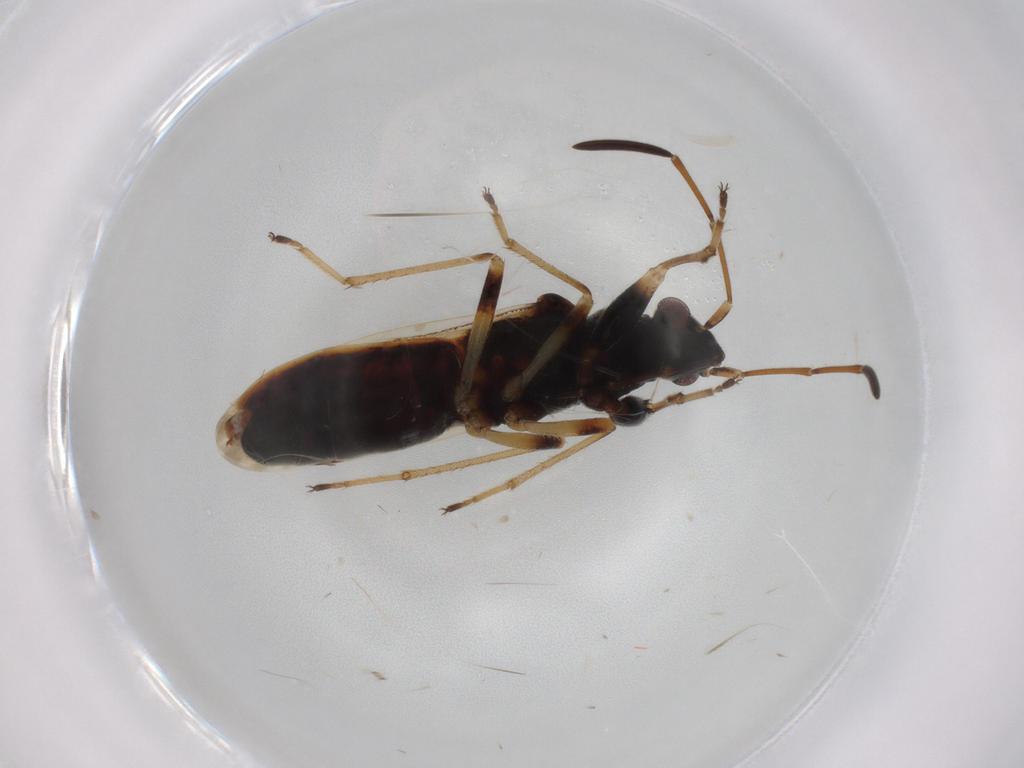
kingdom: Animalia
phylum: Arthropoda
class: Insecta
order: Hemiptera
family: Rhyparochromidae
